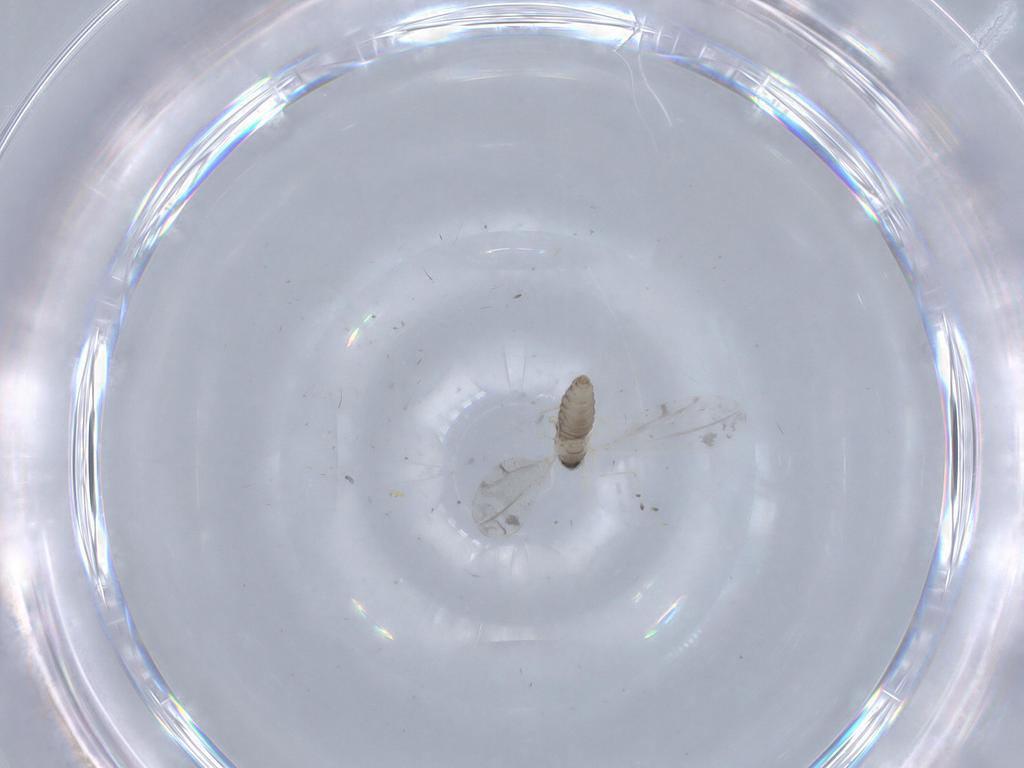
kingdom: Animalia
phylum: Arthropoda
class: Insecta
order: Diptera
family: Cecidomyiidae
